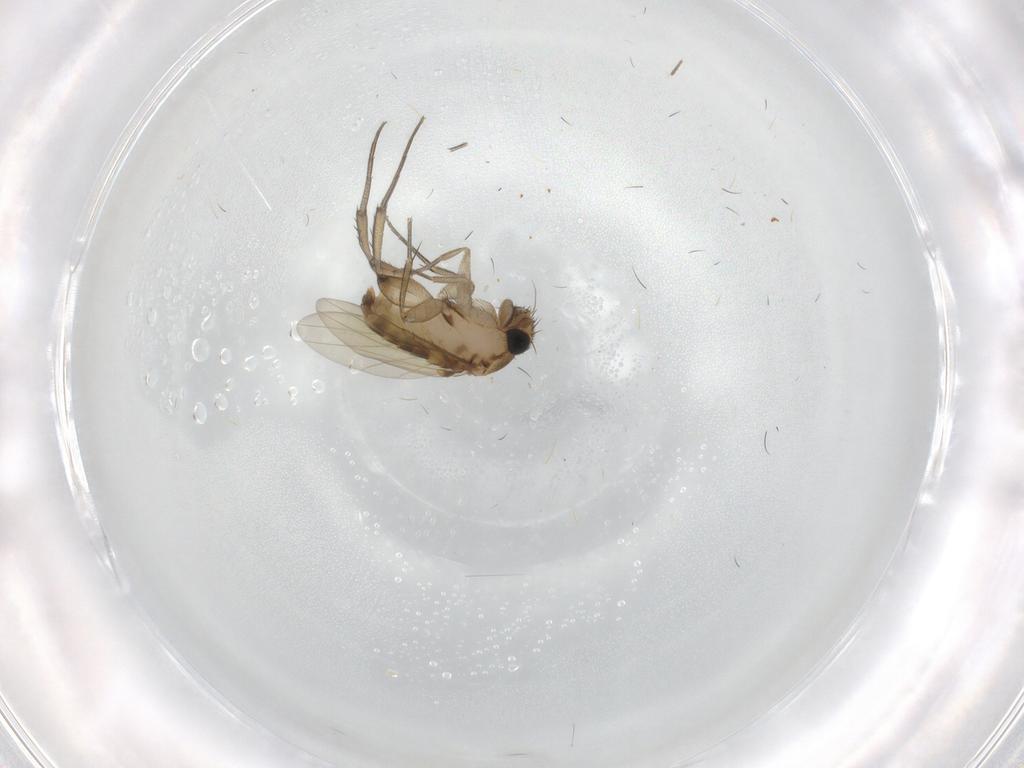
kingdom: Animalia
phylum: Arthropoda
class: Insecta
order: Diptera
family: Phoridae
